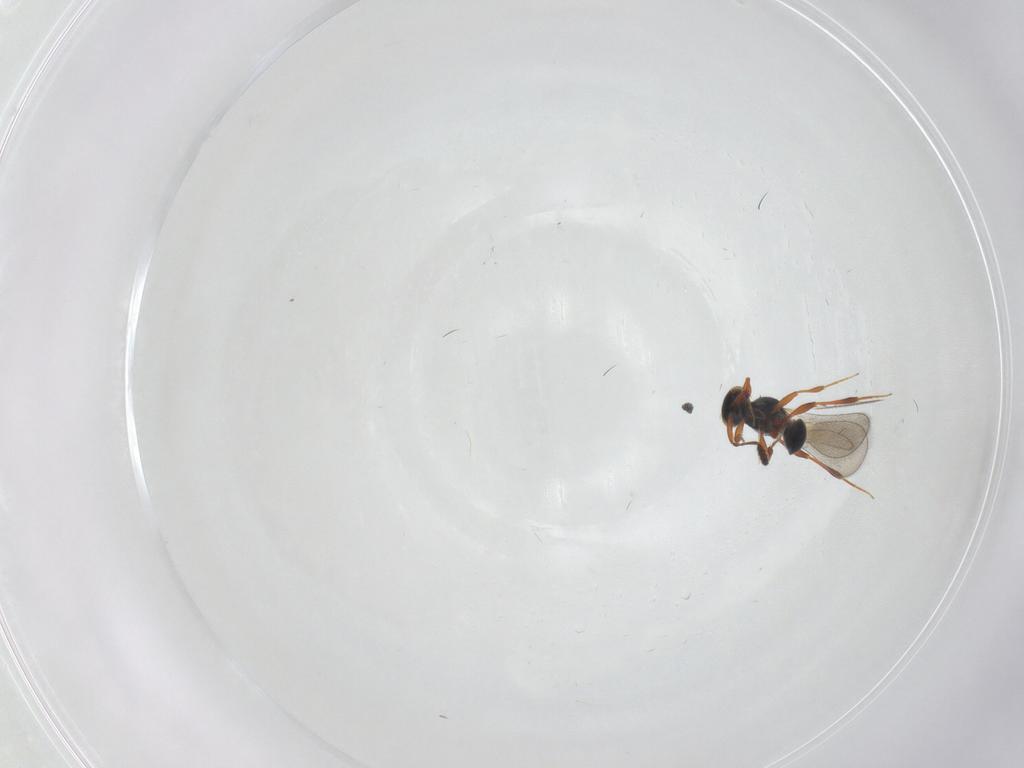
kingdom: Animalia
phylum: Arthropoda
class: Insecta
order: Hymenoptera
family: Platygastridae
